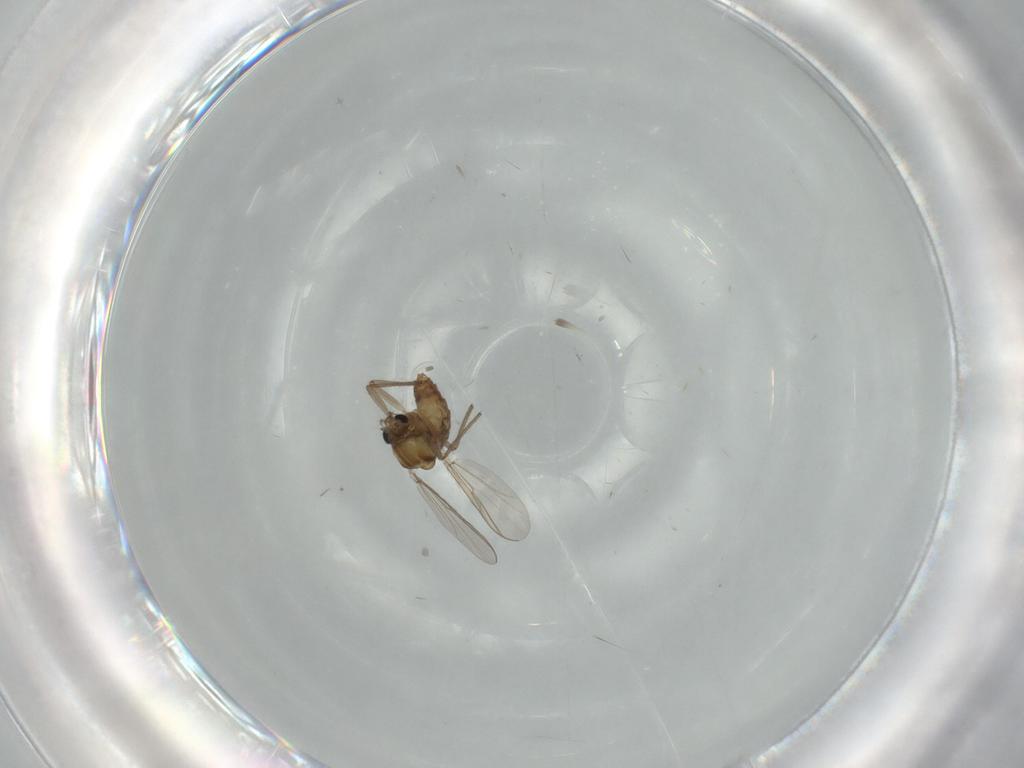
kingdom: Animalia
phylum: Arthropoda
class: Insecta
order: Diptera
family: Chironomidae
